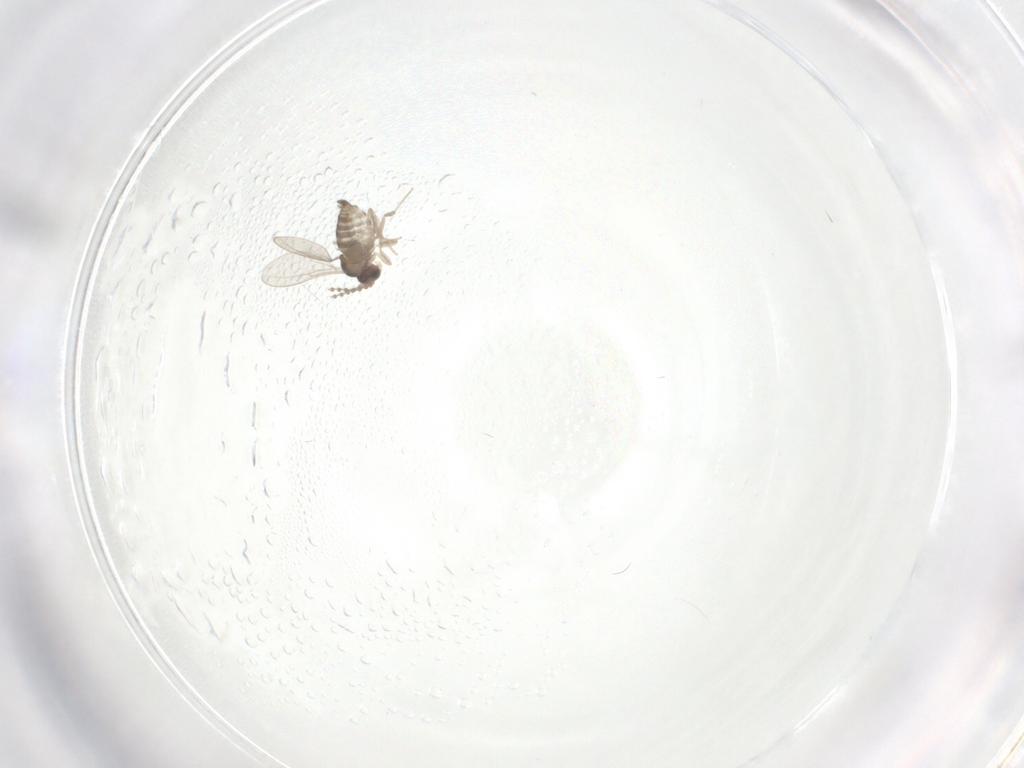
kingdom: Animalia
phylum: Arthropoda
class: Insecta
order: Diptera
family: Phoridae
